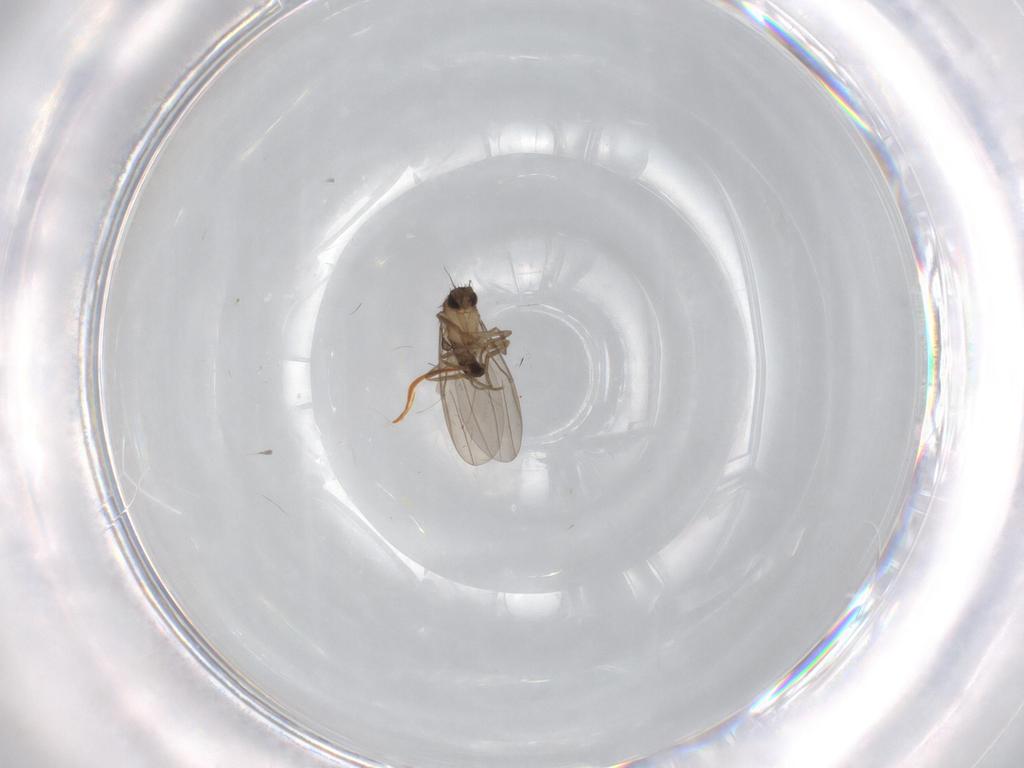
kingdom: Animalia
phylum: Arthropoda
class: Insecta
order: Diptera
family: Phoridae
